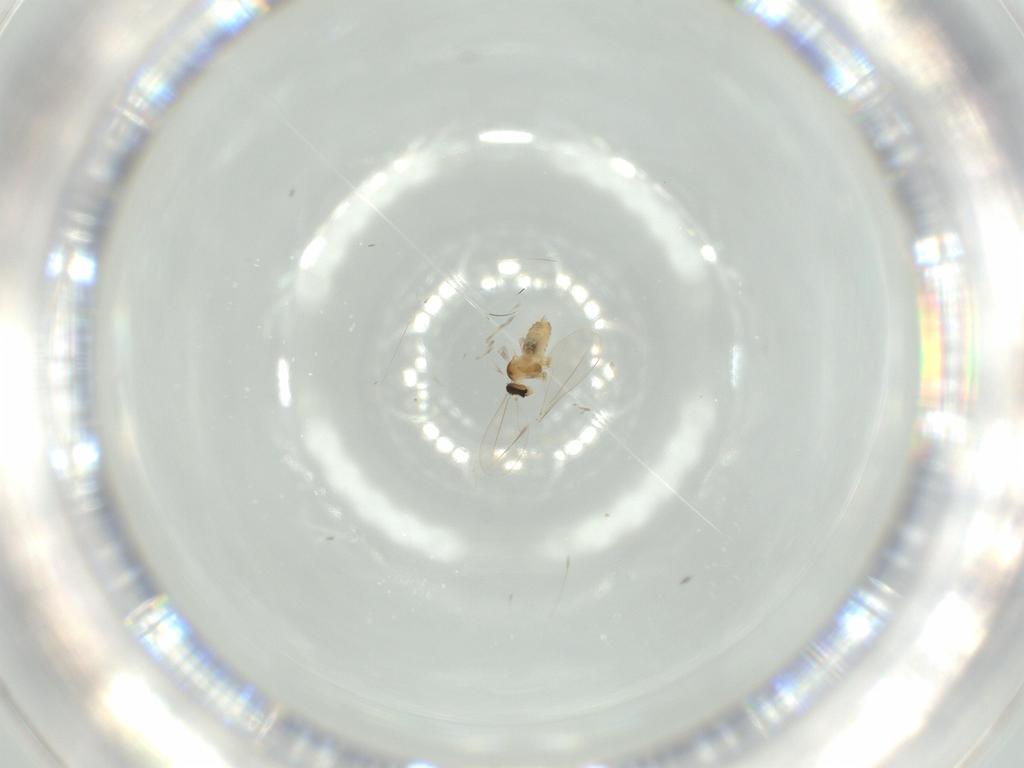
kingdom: Animalia
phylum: Arthropoda
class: Insecta
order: Diptera
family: Cecidomyiidae
